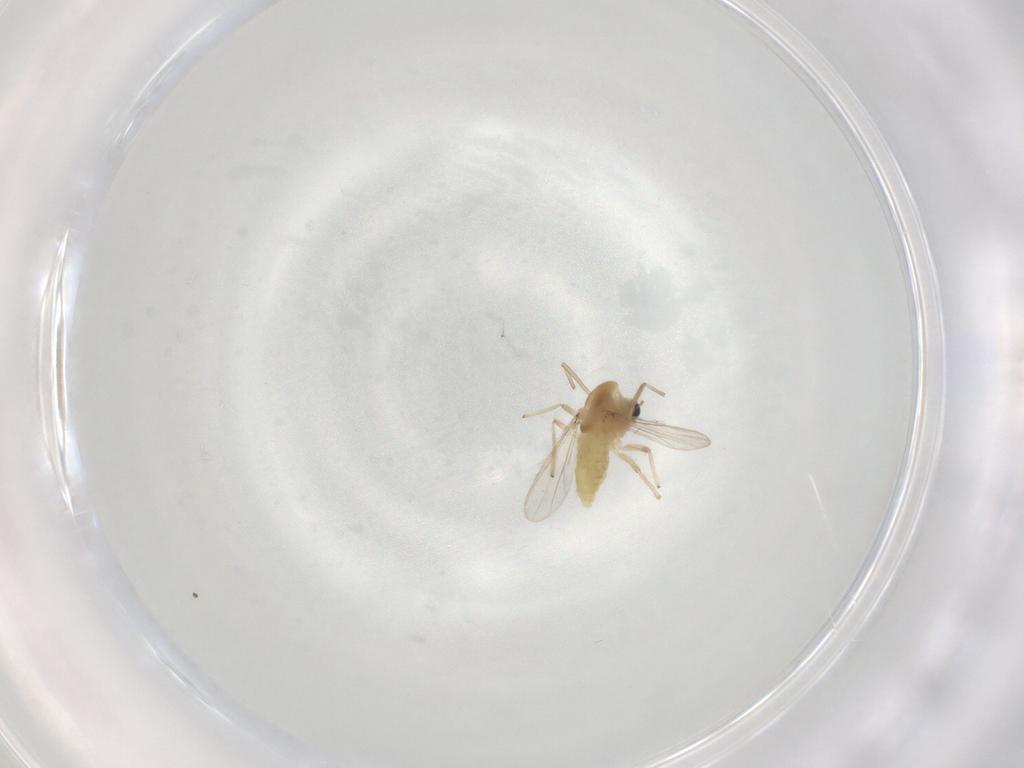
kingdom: Animalia
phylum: Arthropoda
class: Insecta
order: Diptera
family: Chironomidae
